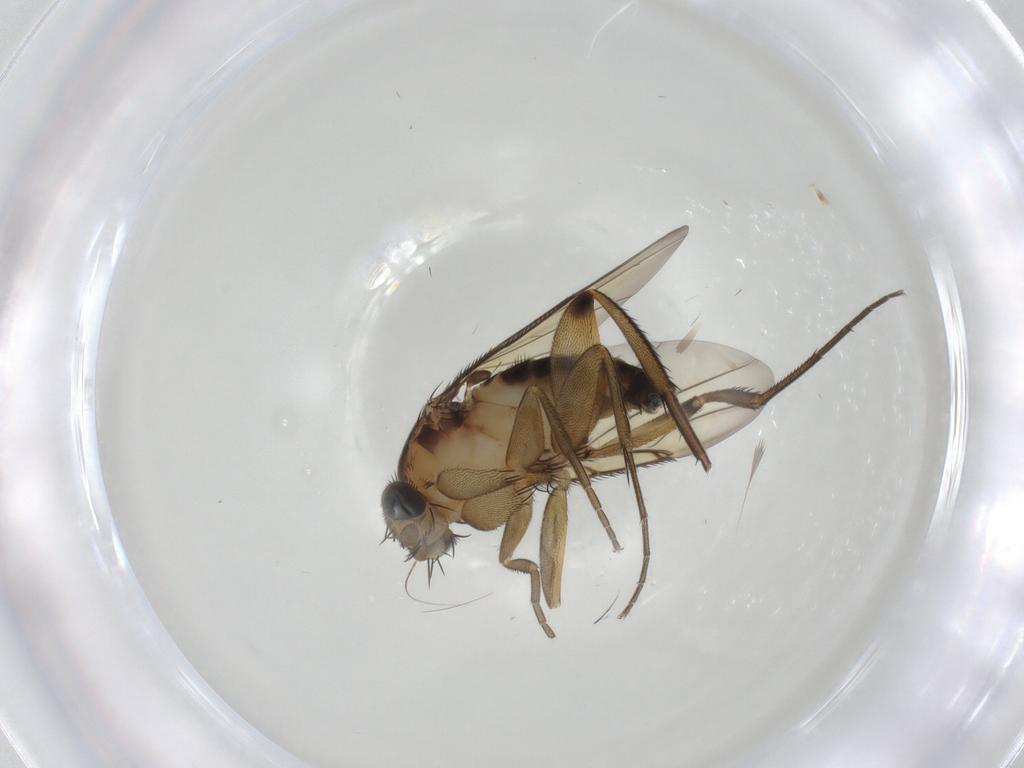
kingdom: Animalia
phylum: Arthropoda
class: Insecta
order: Diptera
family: Phoridae
